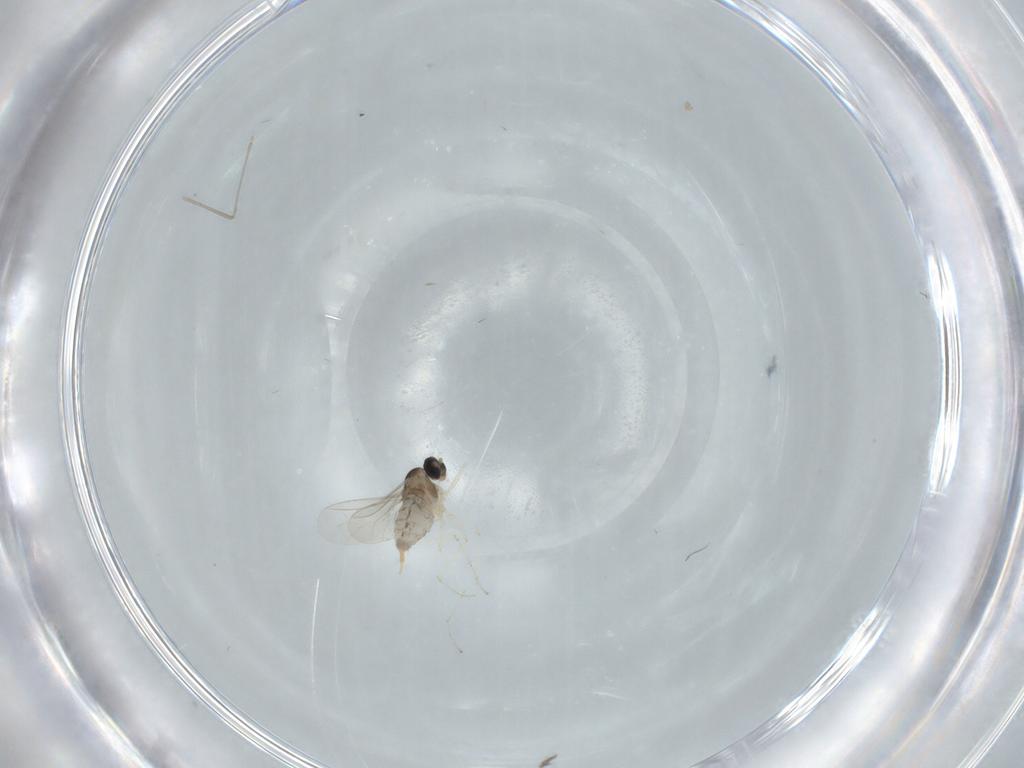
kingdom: Animalia
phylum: Arthropoda
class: Insecta
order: Diptera
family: Cecidomyiidae
